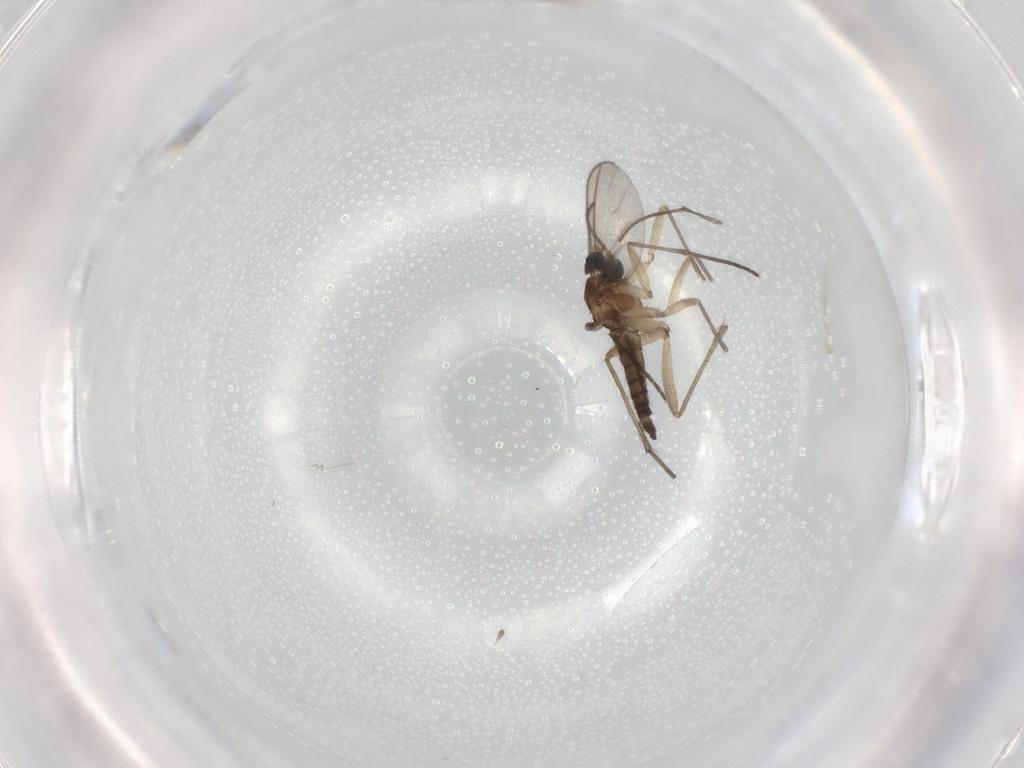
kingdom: Animalia
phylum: Arthropoda
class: Insecta
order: Diptera
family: Sciaridae
